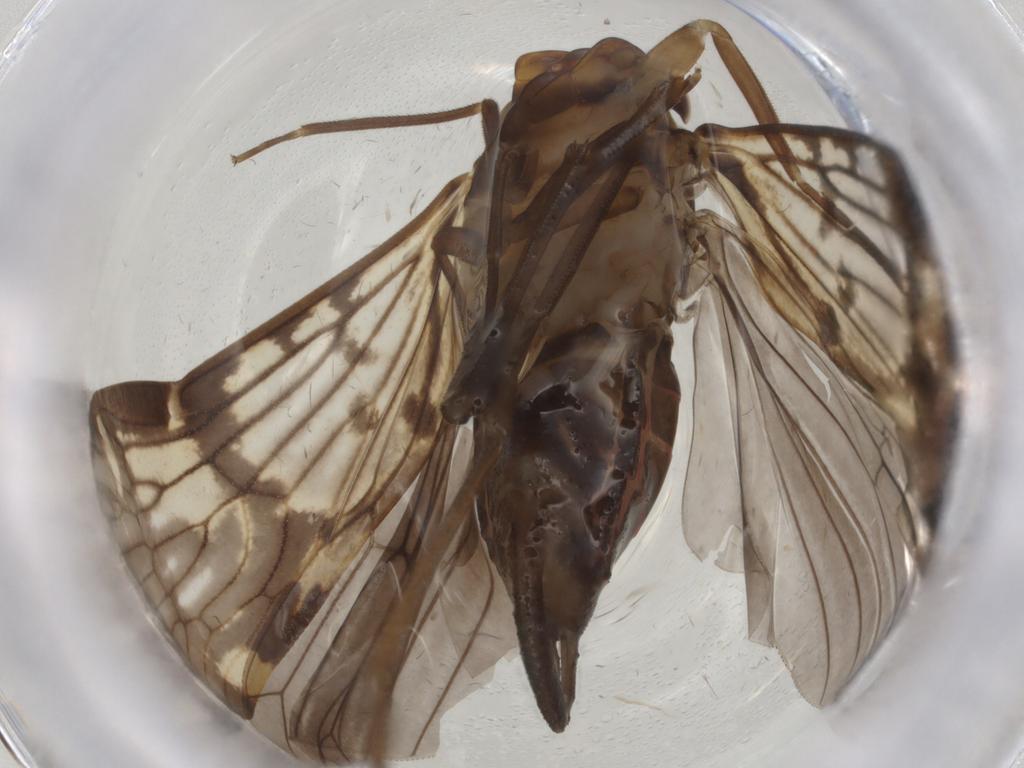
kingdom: Animalia
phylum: Arthropoda
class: Insecta
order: Hemiptera
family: Cixiidae
